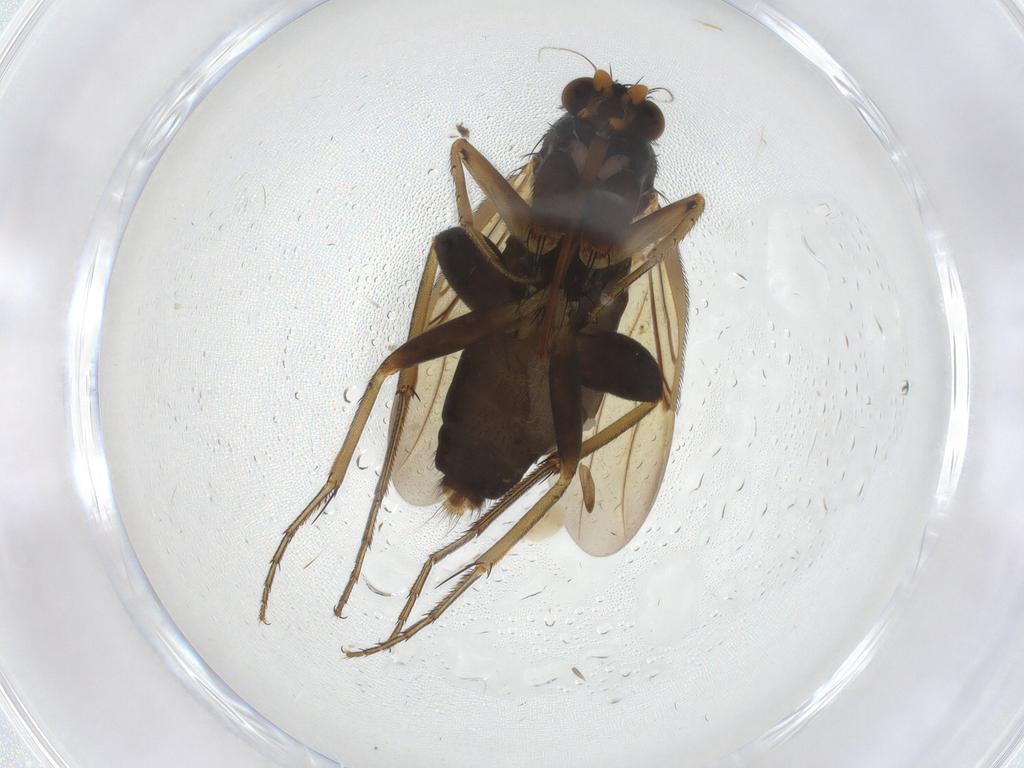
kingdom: Animalia
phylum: Arthropoda
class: Insecta
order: Diptera
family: Phoridae
